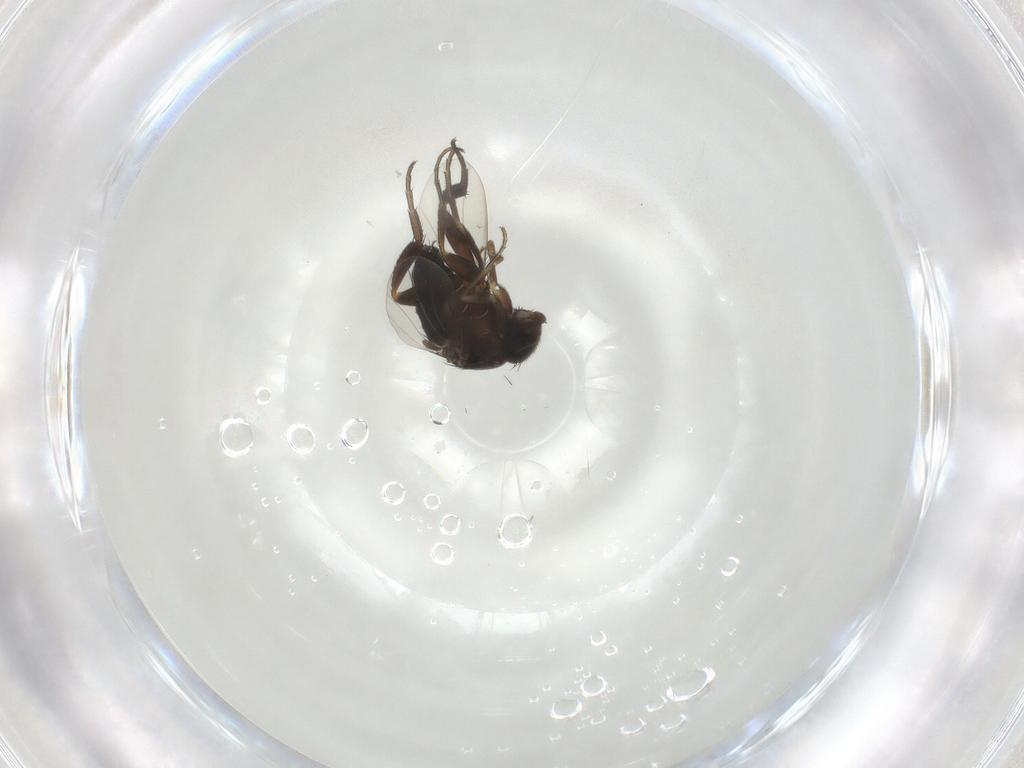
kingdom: Animalia
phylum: Arthropoda
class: Insecta
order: Diptera
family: Phoridae
